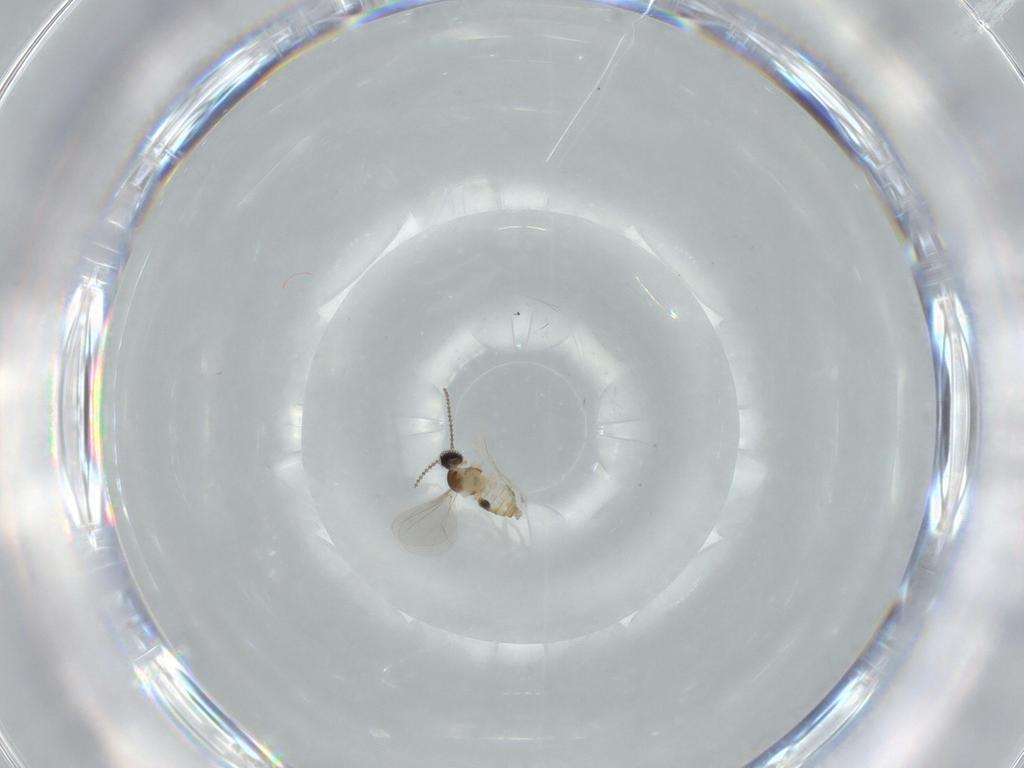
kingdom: Animalia
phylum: Arthropoda
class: Insecta
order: Diptera
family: Cecidomyiidae
